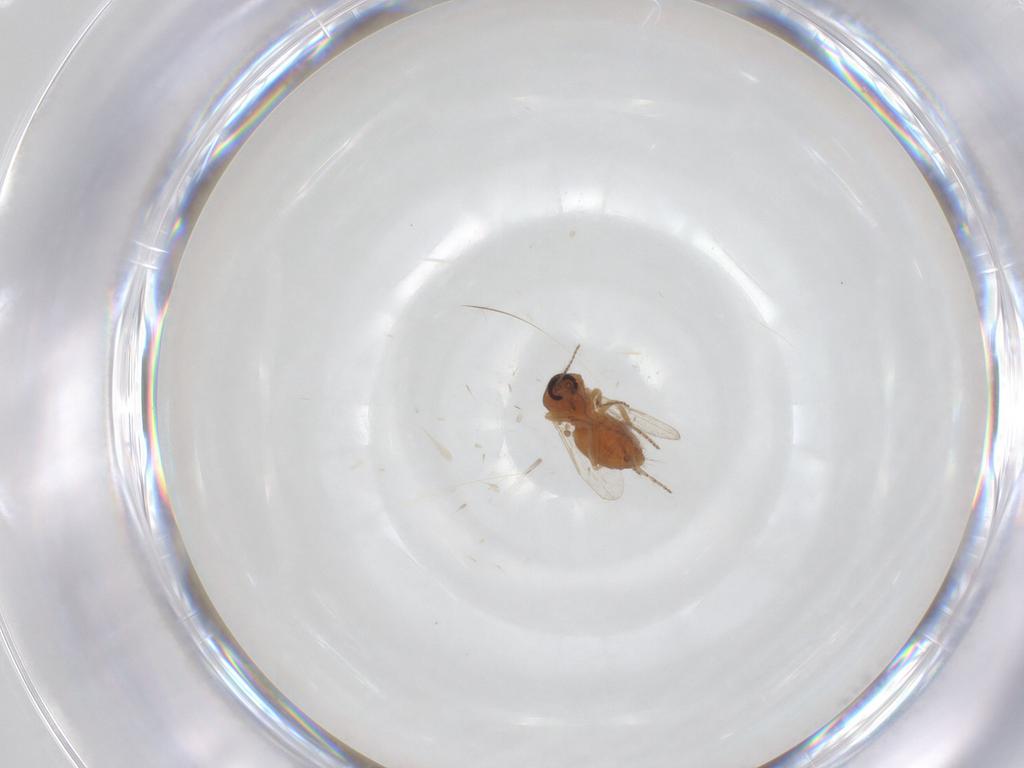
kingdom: Animalia
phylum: Arthropoda
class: Insecta
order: Diptera
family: Ceratopogonidae
